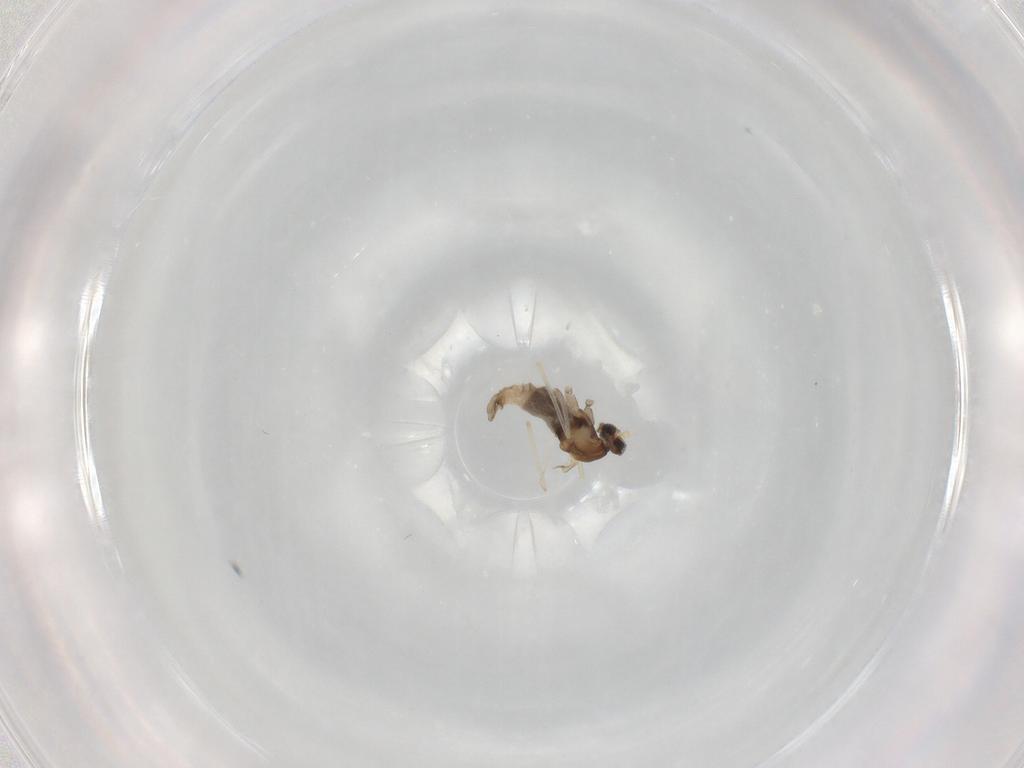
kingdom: Animalia
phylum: Arthropoda
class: Insecta
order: Diptera
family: Cecidomyiidae
